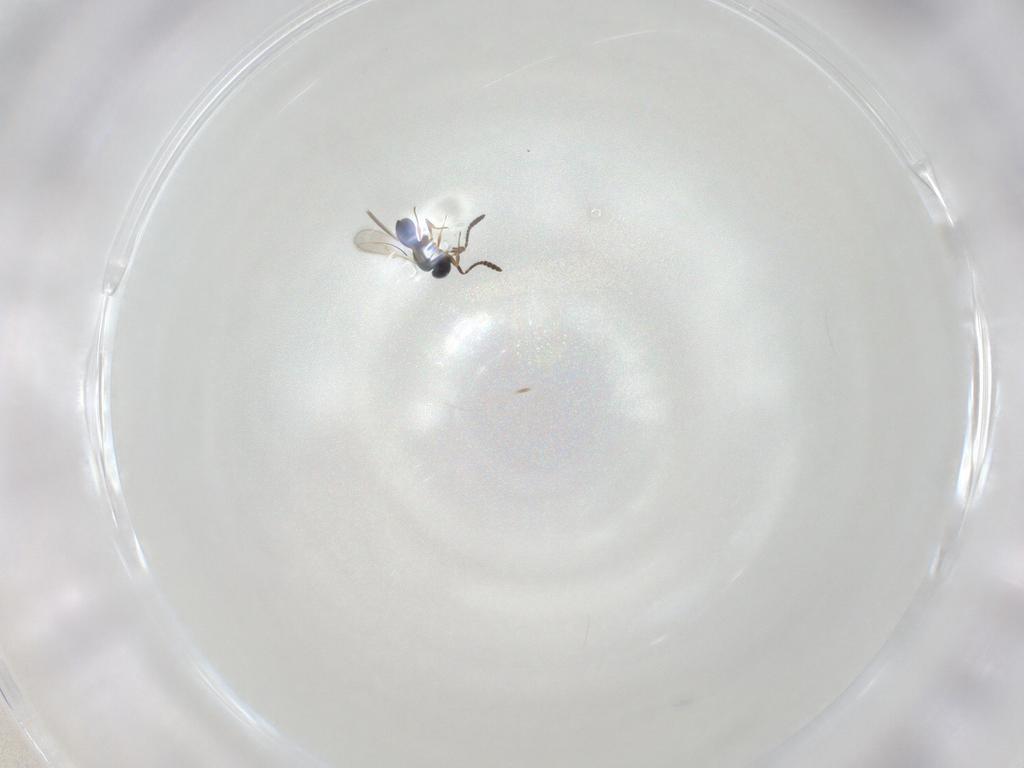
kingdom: Animalia
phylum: Arthropoda
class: Insecta
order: Hymenoptera
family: Scelionidae
